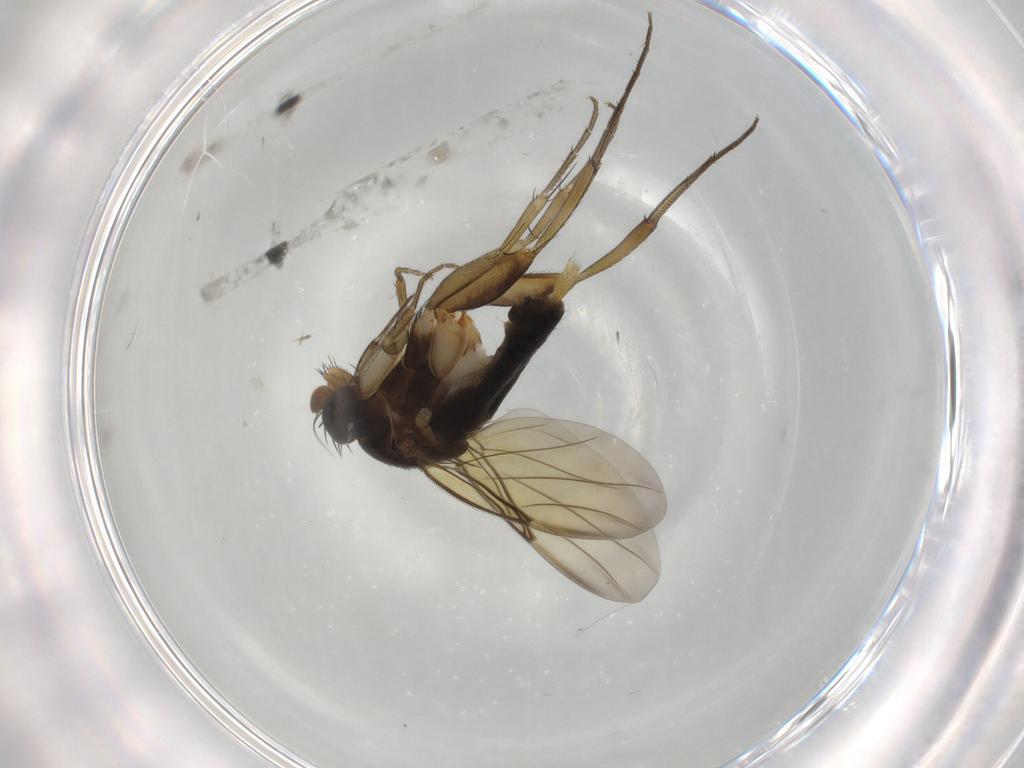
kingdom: Animalia
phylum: Arthropoda
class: Insecta
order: Diptera
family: Phoridae
